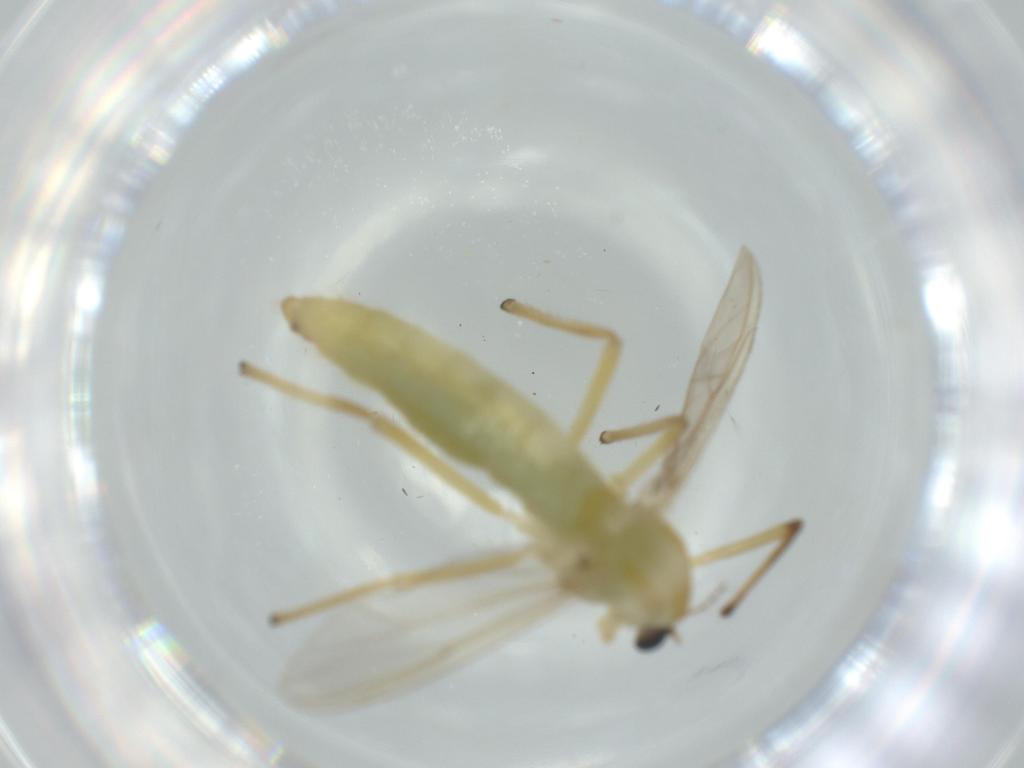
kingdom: Animalia
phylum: Arthropoda
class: Insecta
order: Diptera
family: Chironomidae
